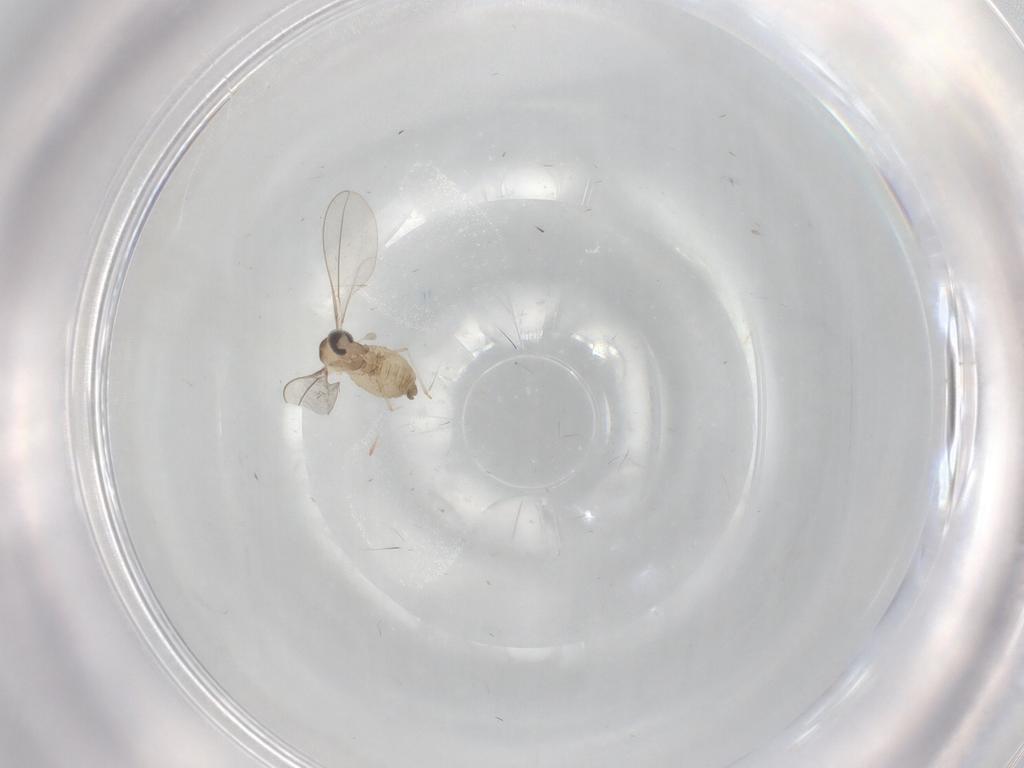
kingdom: Animalia
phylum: Arthropoda
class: Insecta
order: Diptera
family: Cecidomyiidae
